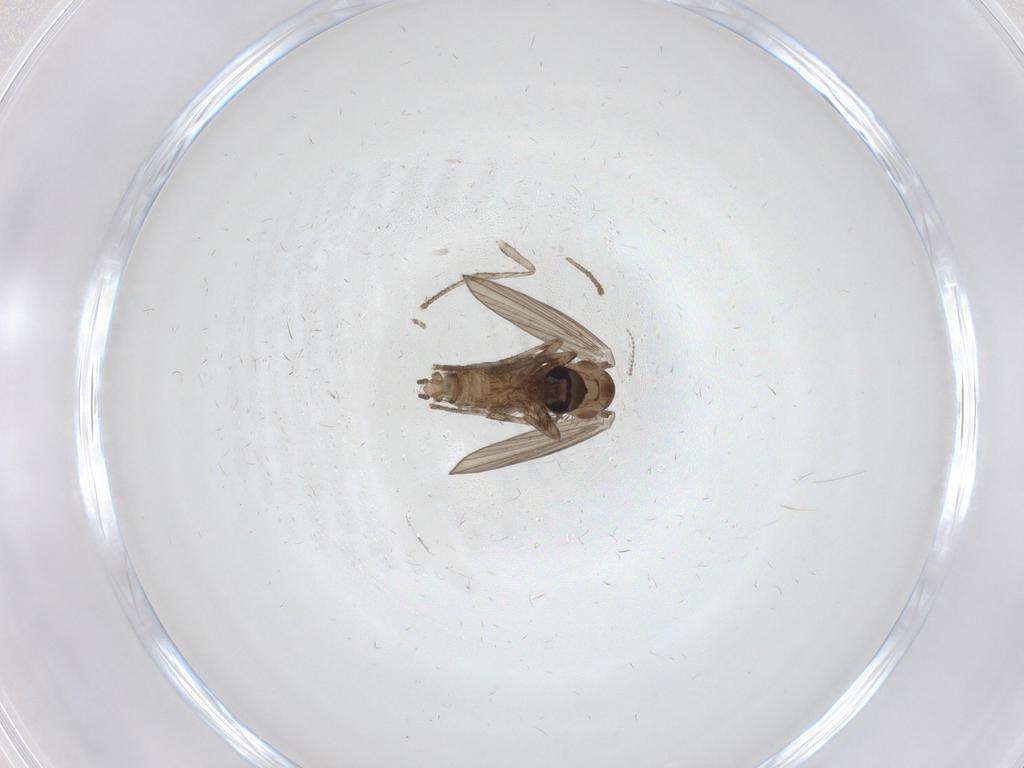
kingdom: Animalia
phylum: Arthropoda
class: Insecta
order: Diptera
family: Psychodidae
